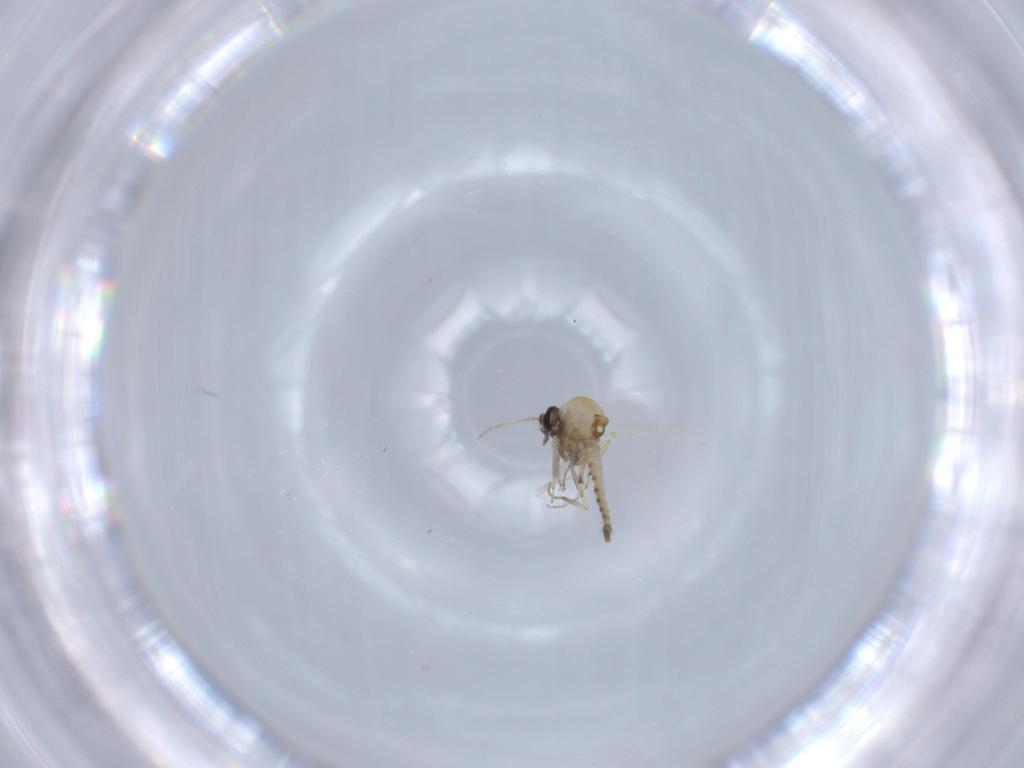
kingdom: Animalia
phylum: Arthropoda
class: Insecta
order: Diptera
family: Ceratopogonidae
